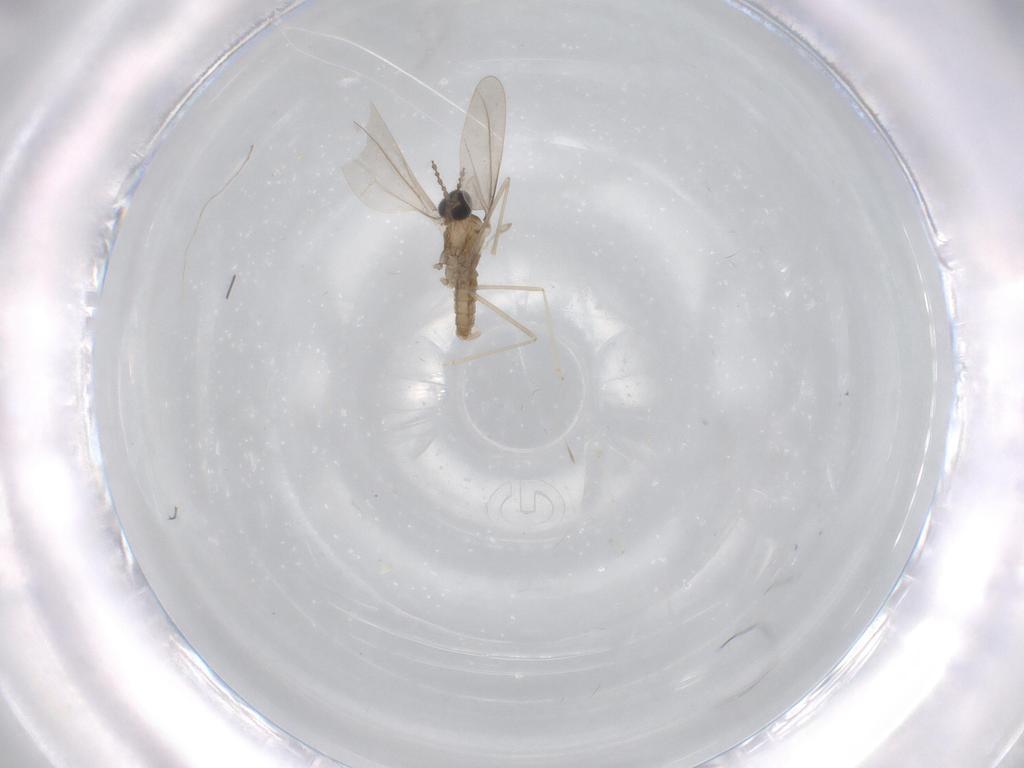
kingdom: Animalia
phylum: Arthropoda
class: Insecta
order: Diptera
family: Cecidomyiidae
